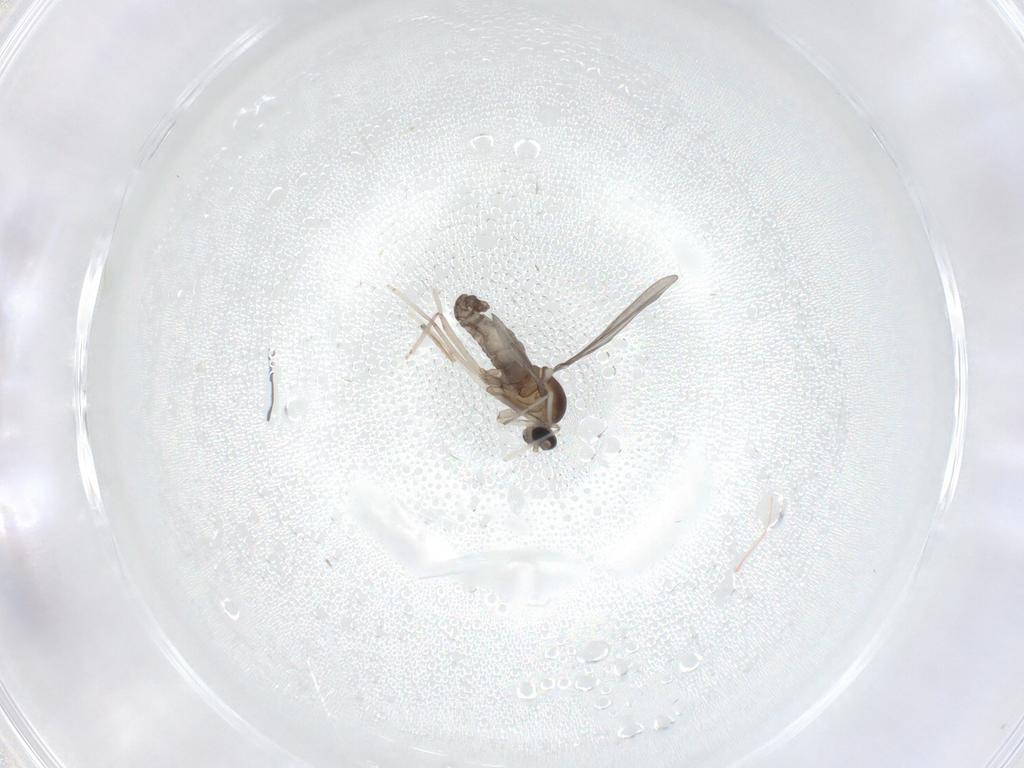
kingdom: Animalia
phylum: Arthropoda
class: Insecta
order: Diptera
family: Cecidomyiidae
